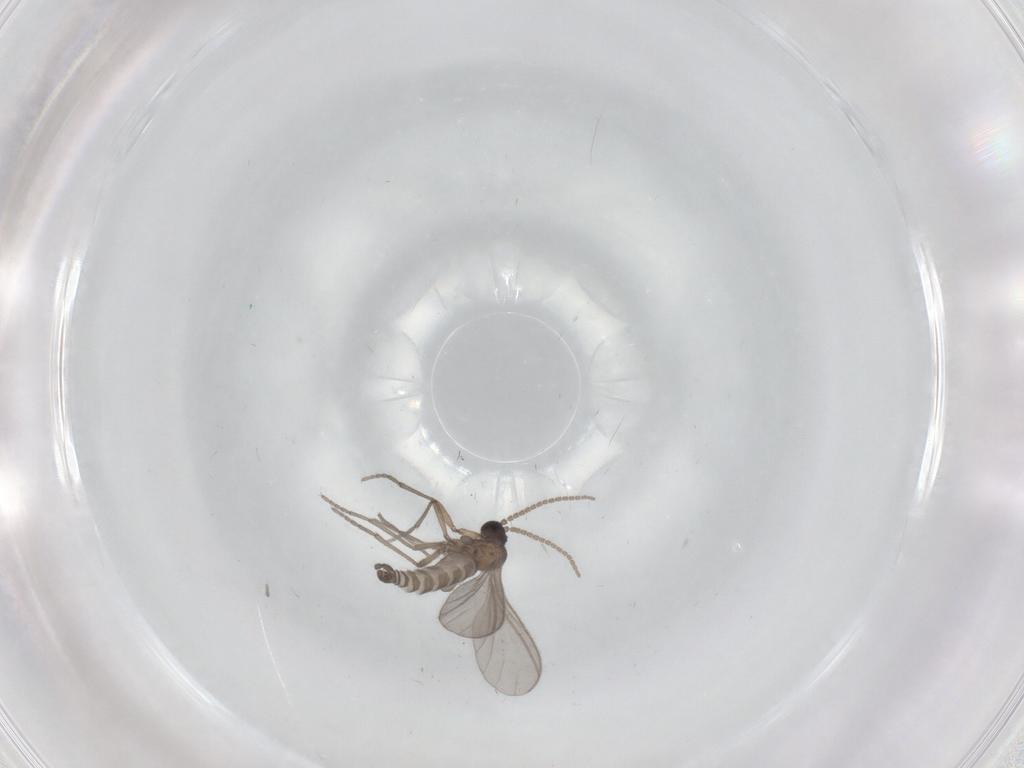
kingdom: Animalia
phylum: Arthropoda
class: Insecta
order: Diptera
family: Sciaridae
